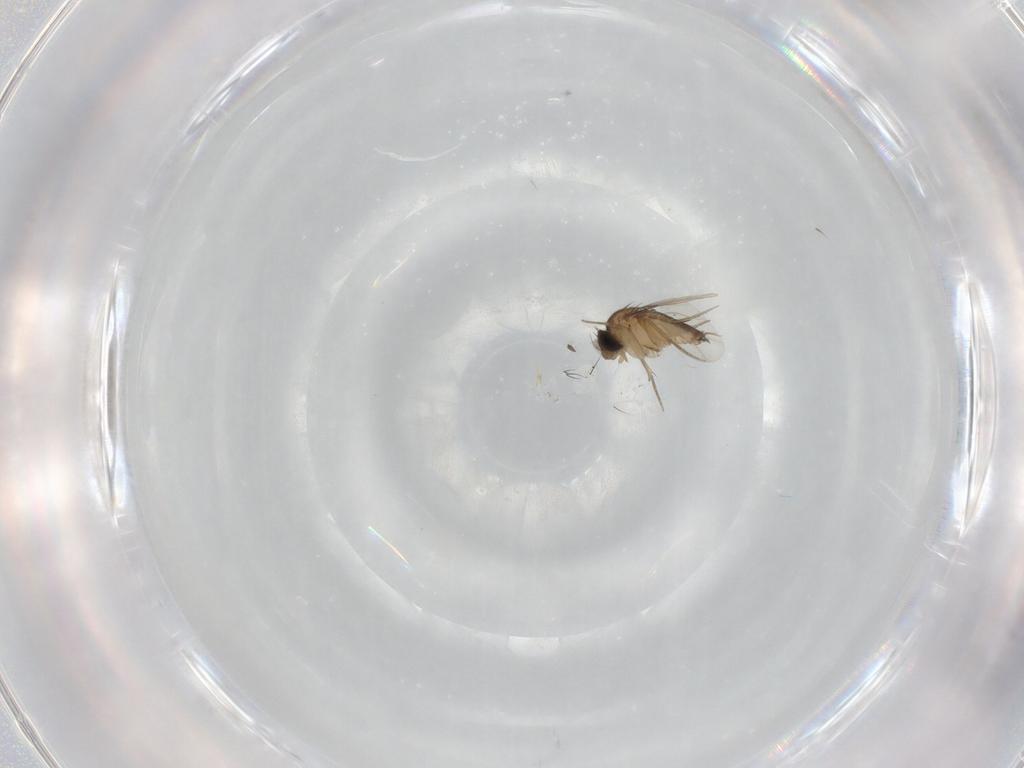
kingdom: Animalia
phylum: Arthropoda
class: Insecta
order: Diptera
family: Phoridae
